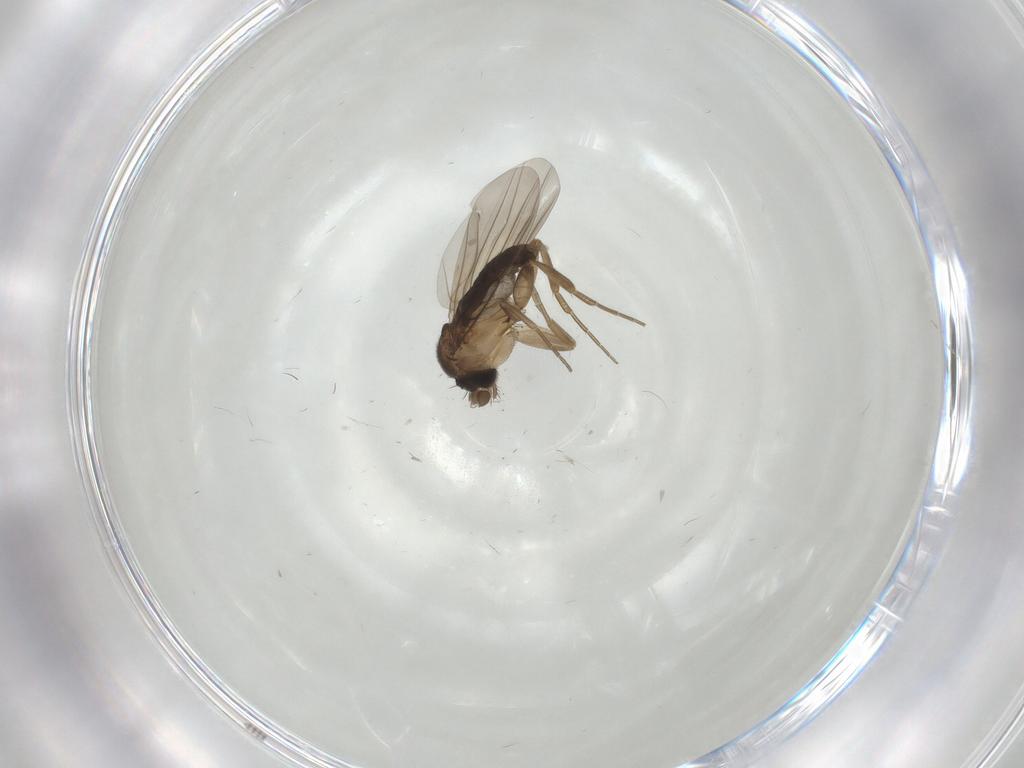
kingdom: Animalia
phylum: Arthropoda
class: Insecta
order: Diptera
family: Phoridae
